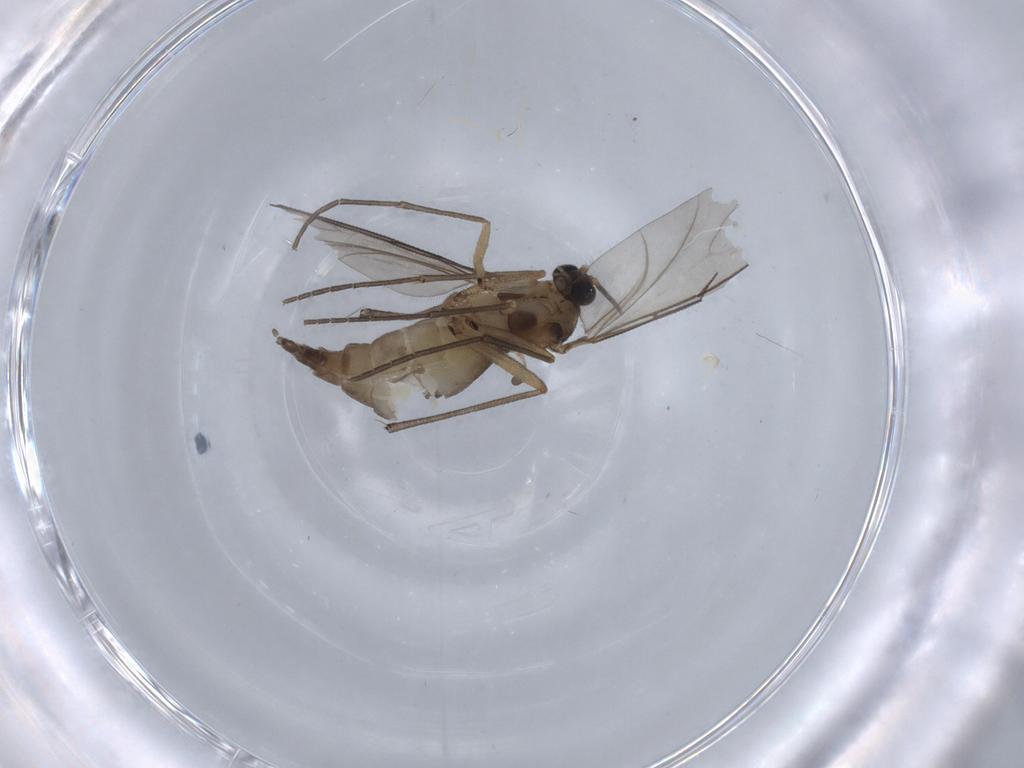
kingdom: Animalia
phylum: Arthropoda
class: Insecta
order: Diptera
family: Sciaridae
